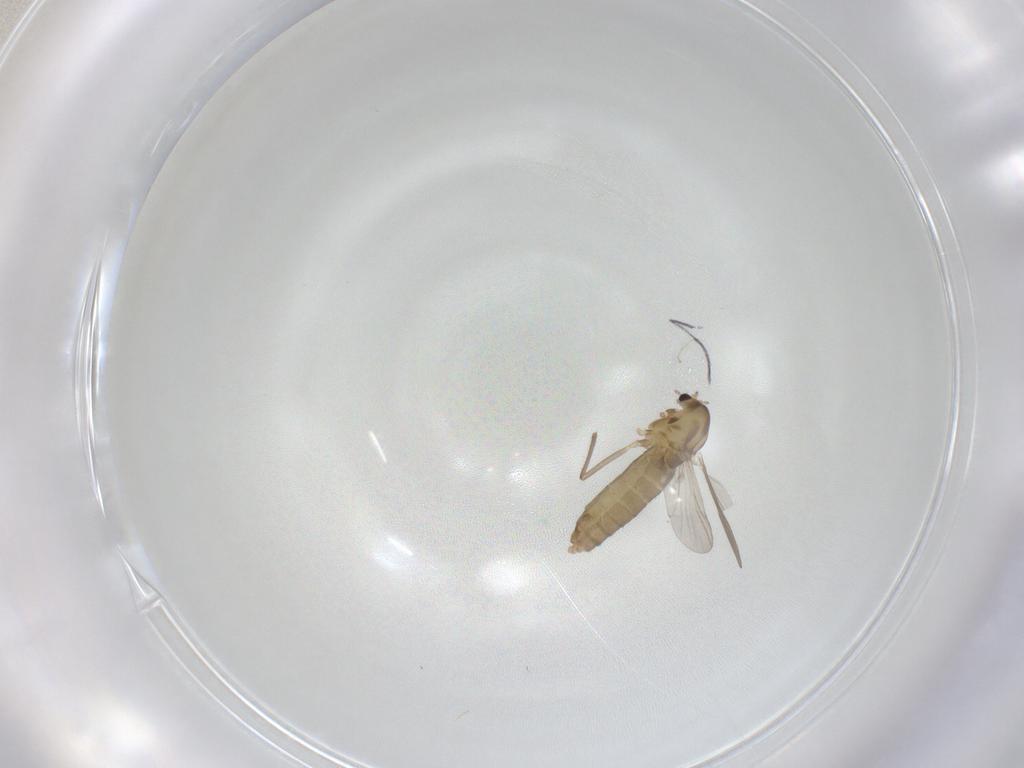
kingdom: Animalia
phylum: Arthropoda
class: Insecta
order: Diptera
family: Chironomidae
